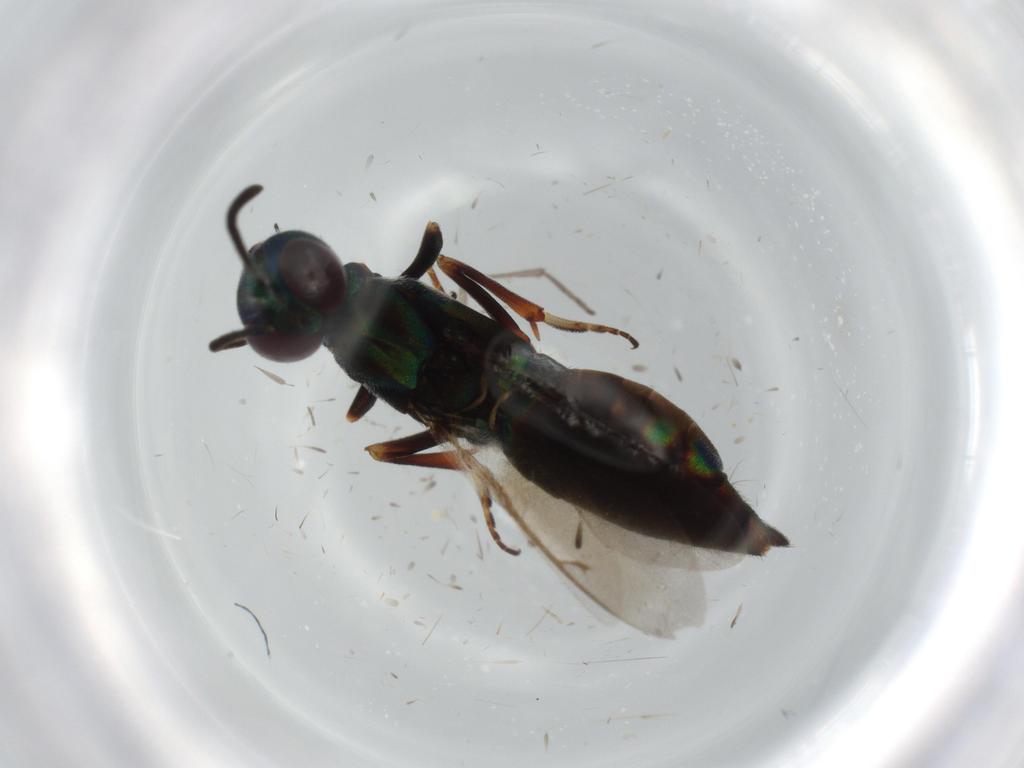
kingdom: Animalia
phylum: Arthropoda
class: Insecta
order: Hymenoptera
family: Eupelmidae
